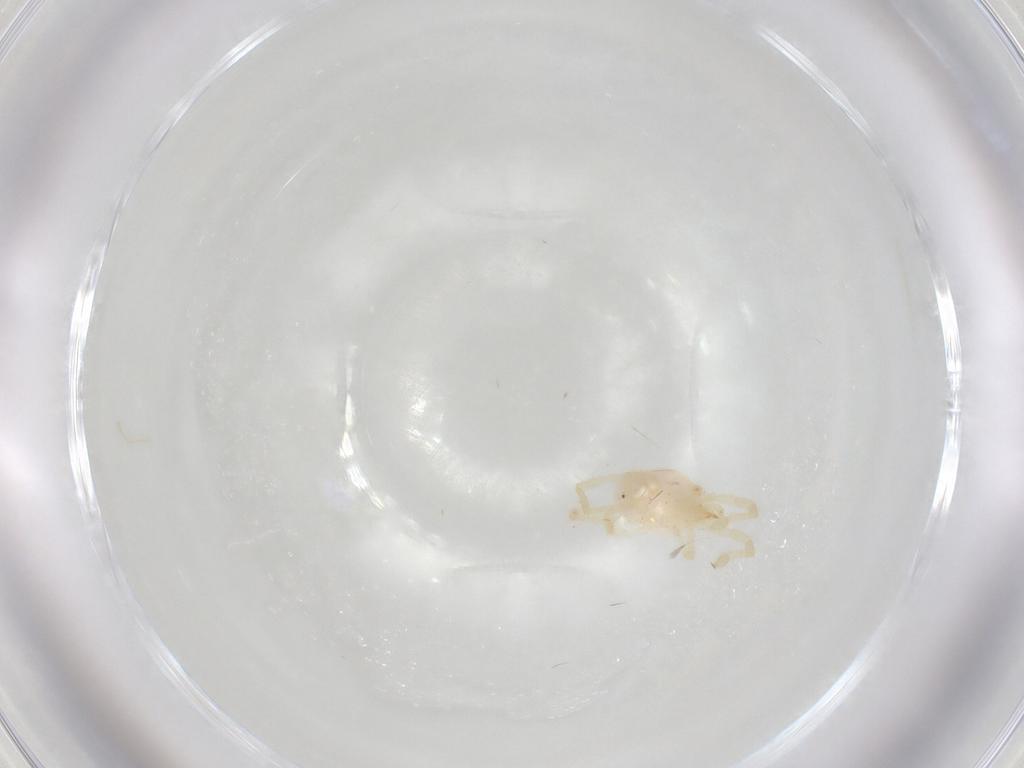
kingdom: Animalia
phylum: Arthropoda
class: Arachnida
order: Trombidiformes
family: Erythraeidae
